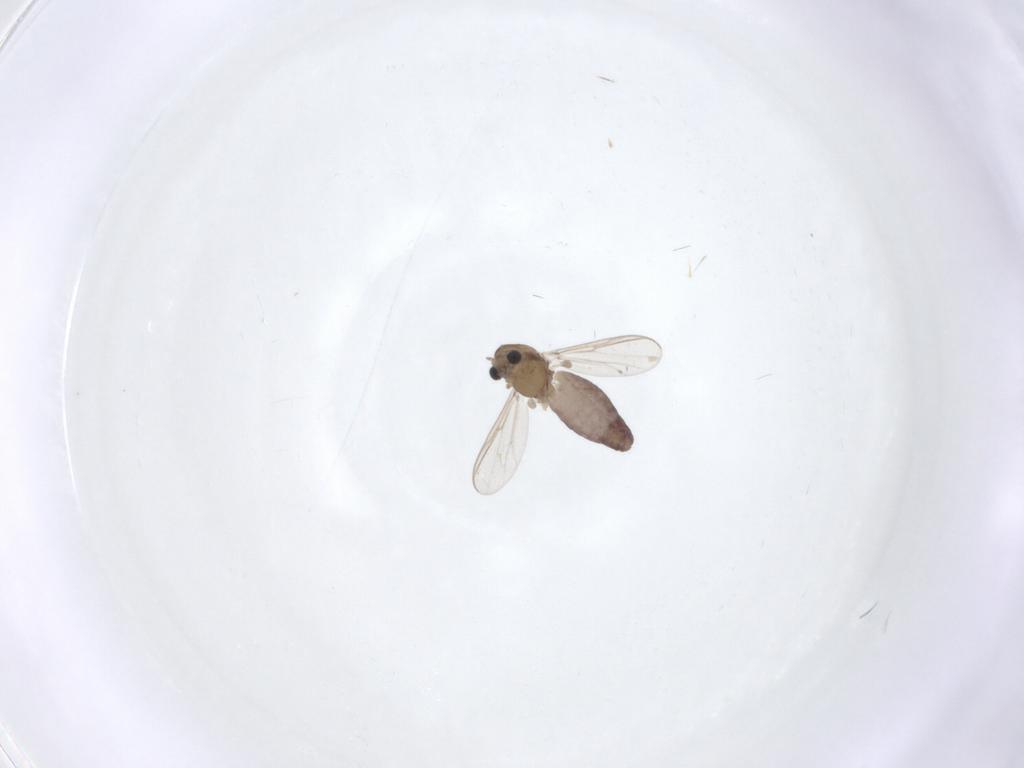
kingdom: Animalia
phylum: Arthropoda
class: Insecta
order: Diptera
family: Chironomidae
